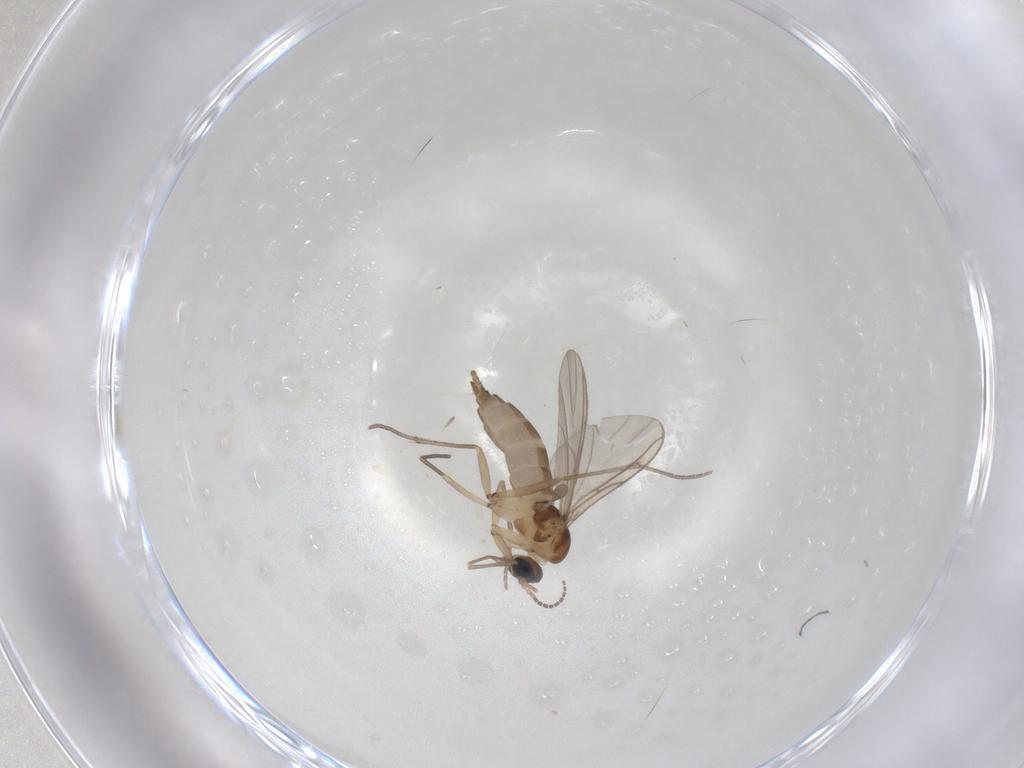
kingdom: Animalia
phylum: Arthropoda
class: Insecta
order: Diptera
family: Sciaridae
